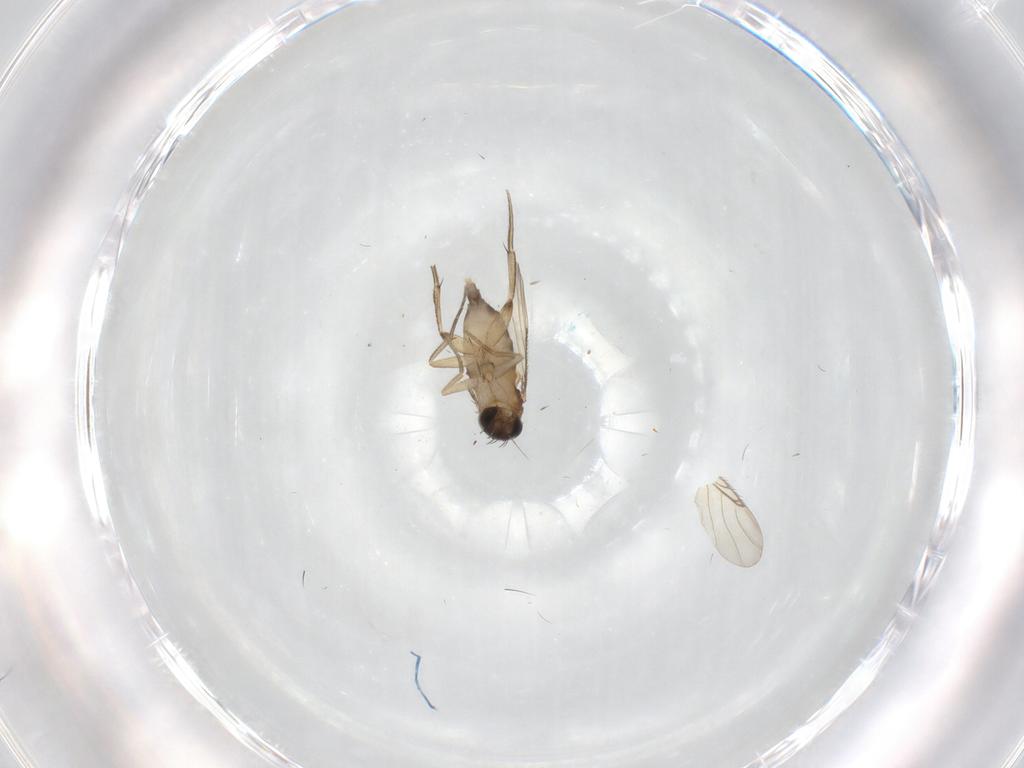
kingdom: Animalia
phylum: Arthropoda
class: Insecta
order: Diptera
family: Phoridae
